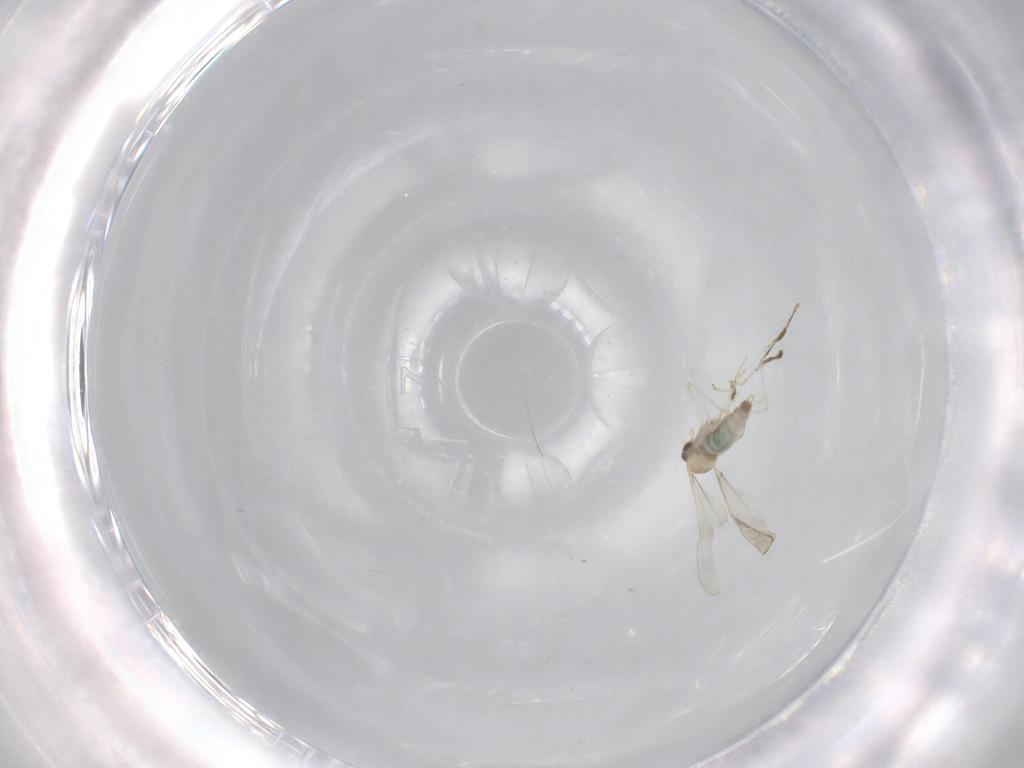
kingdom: Animalia
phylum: Arthropoda
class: Insecta
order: Diptera
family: Cecidomyiidae
